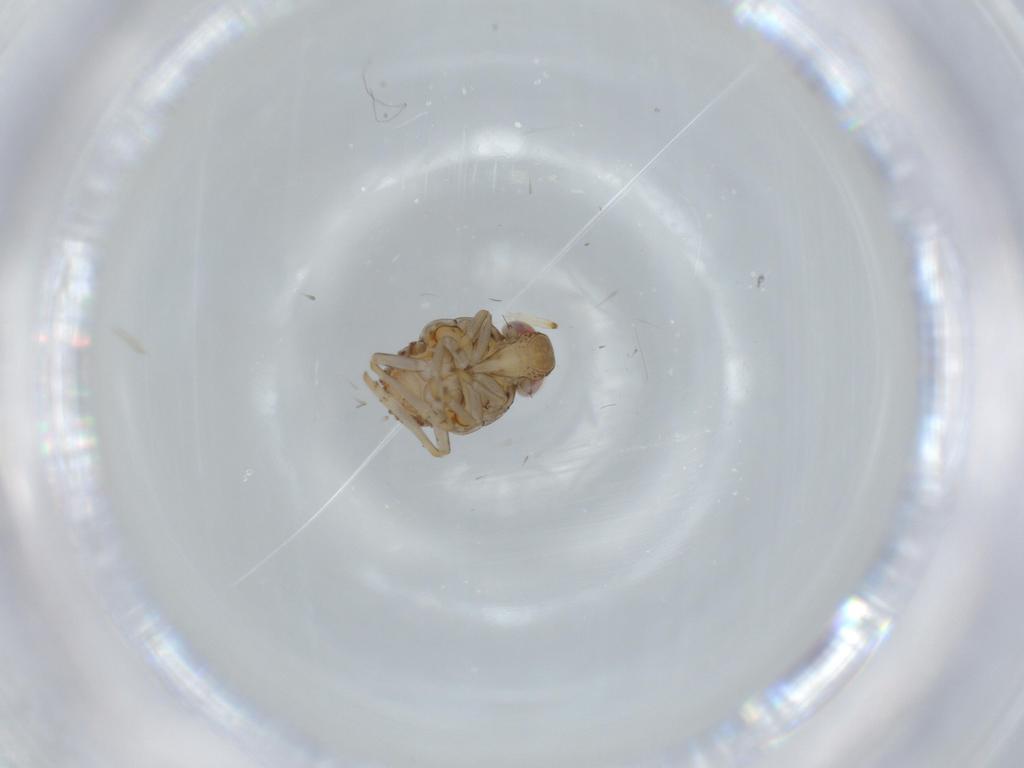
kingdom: Animalia
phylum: Arthropoda
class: Insecta
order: Hemiptera
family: Issidae
